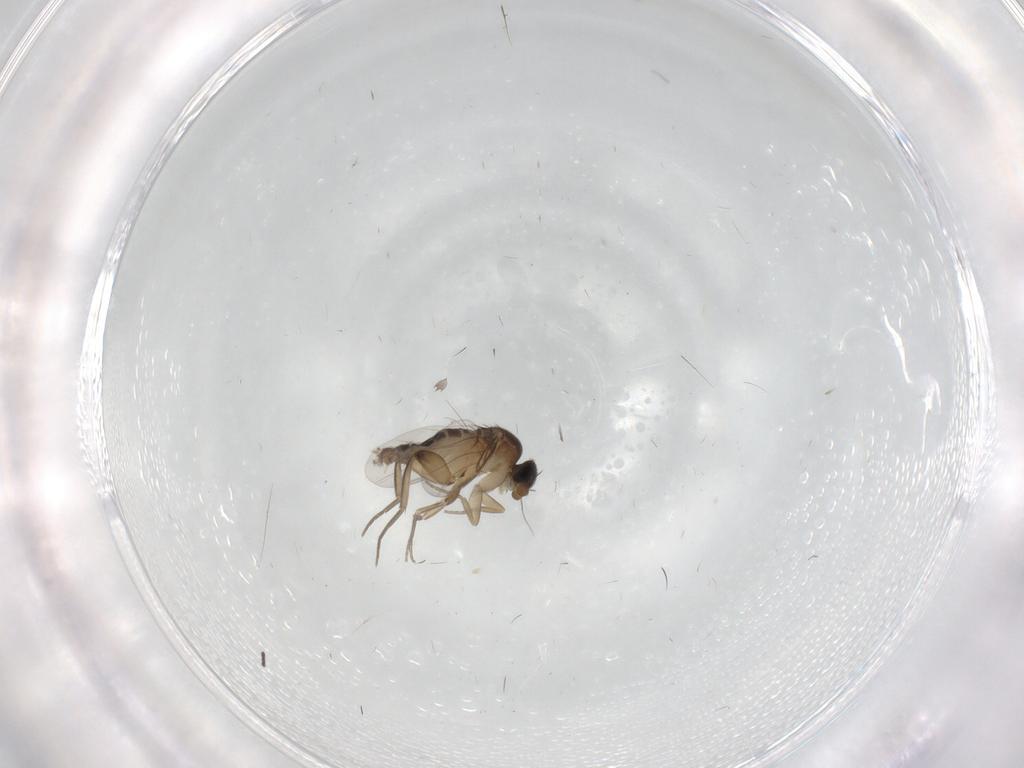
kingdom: Animalia
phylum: Arthropoda
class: Insecta
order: Diptera
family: Phoridae
